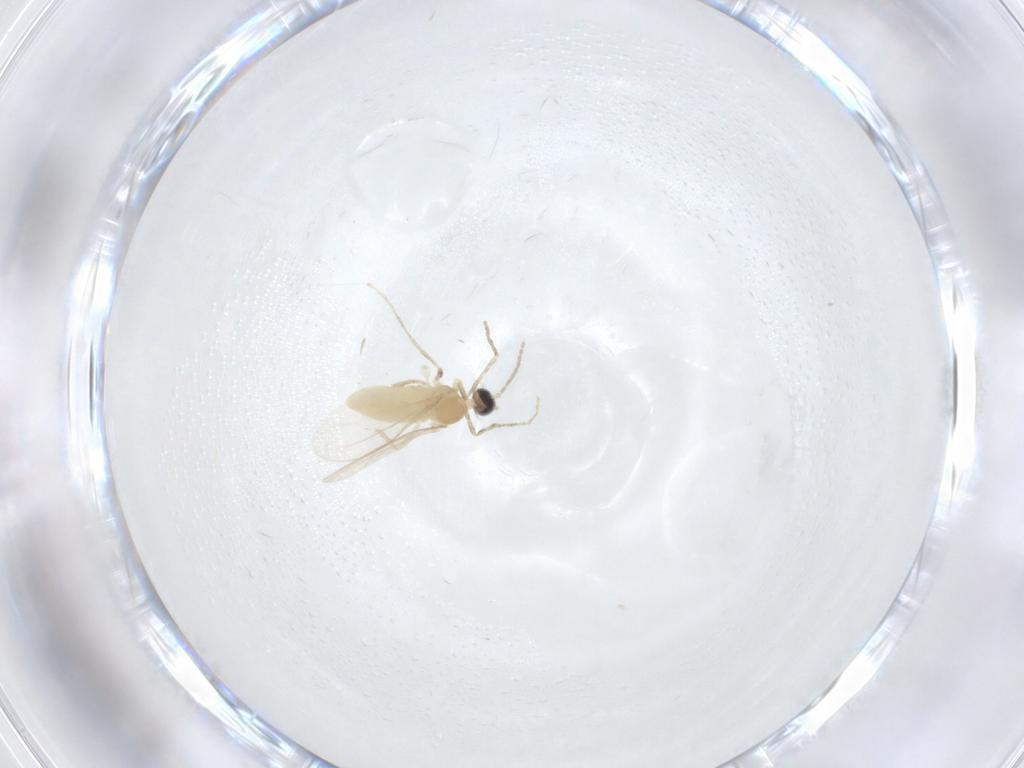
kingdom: Animalia
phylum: Arthropoda
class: Insecta
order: Diptera
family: Cecidomyiidae
